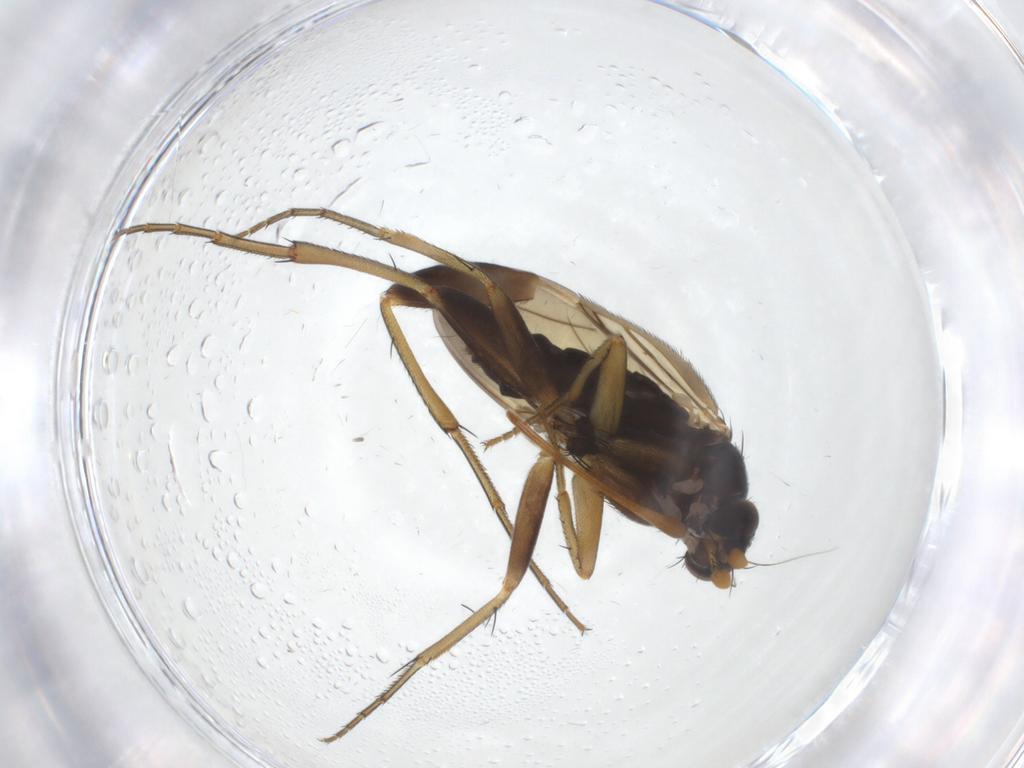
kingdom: Animalia
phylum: Arthropoda
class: Insecta
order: Diptera
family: Phoridae
